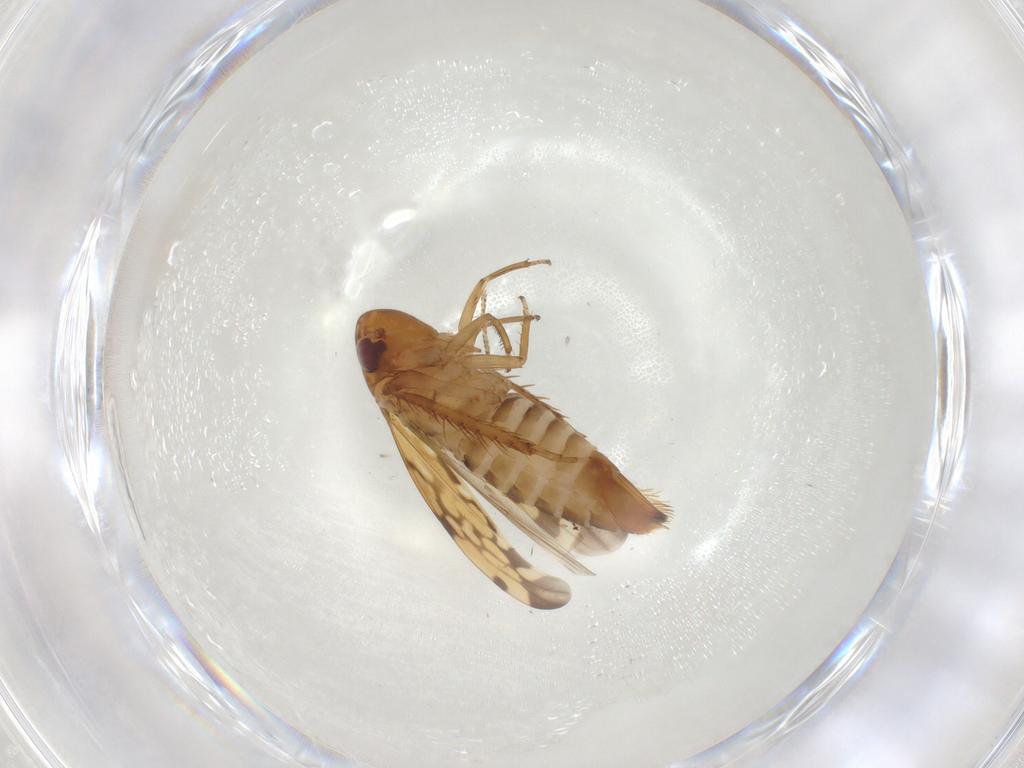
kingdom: Animalia
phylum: Arthropoda
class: Insecta
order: Hemiptera
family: Cicadellidae
